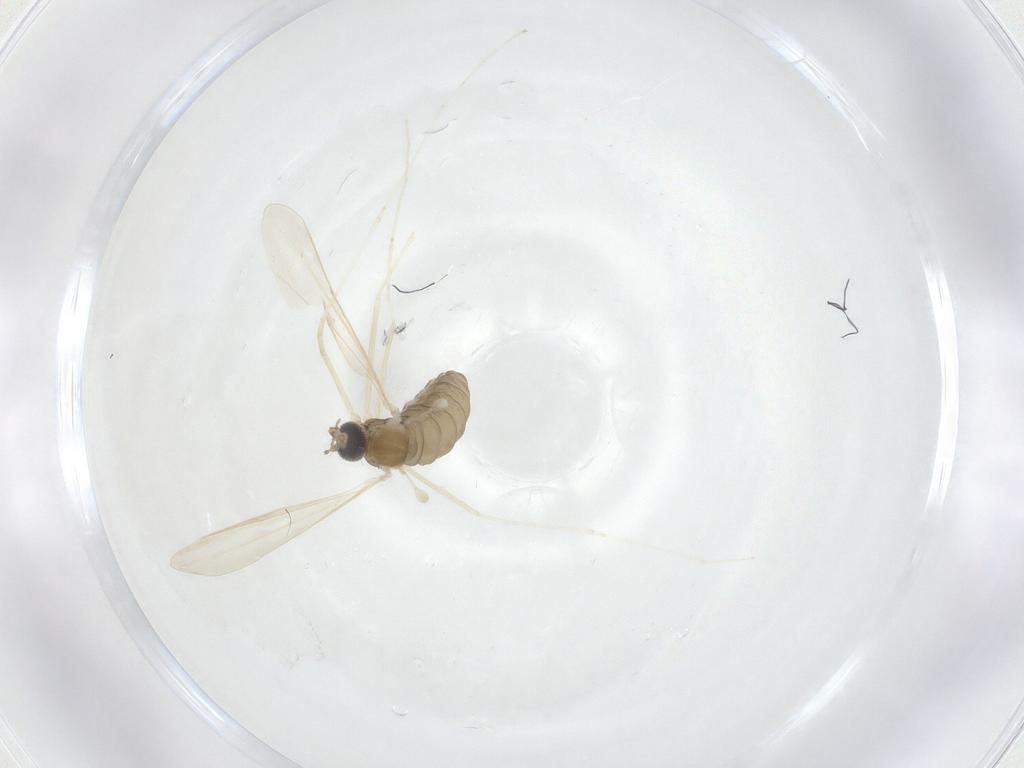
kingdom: Animalia
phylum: Arthropoda
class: Insecta
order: Diptera
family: Cecidomyiidae
